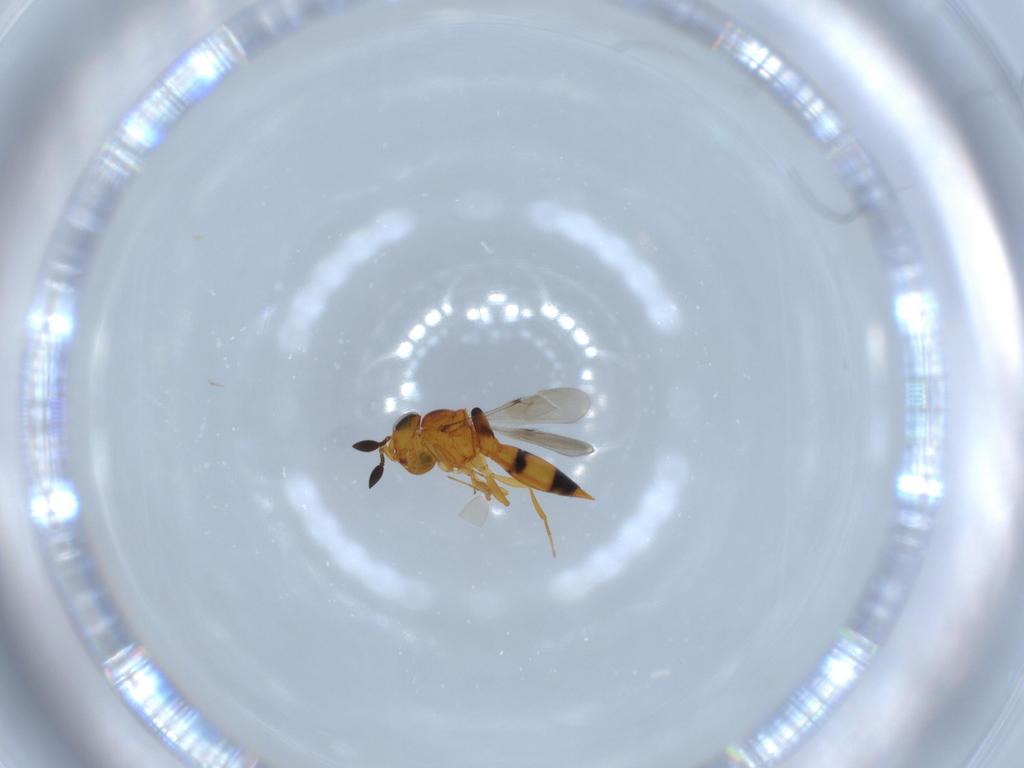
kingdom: Animalia
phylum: Arthropoda
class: Insecta
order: Hymenoptera
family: Scelionidae
